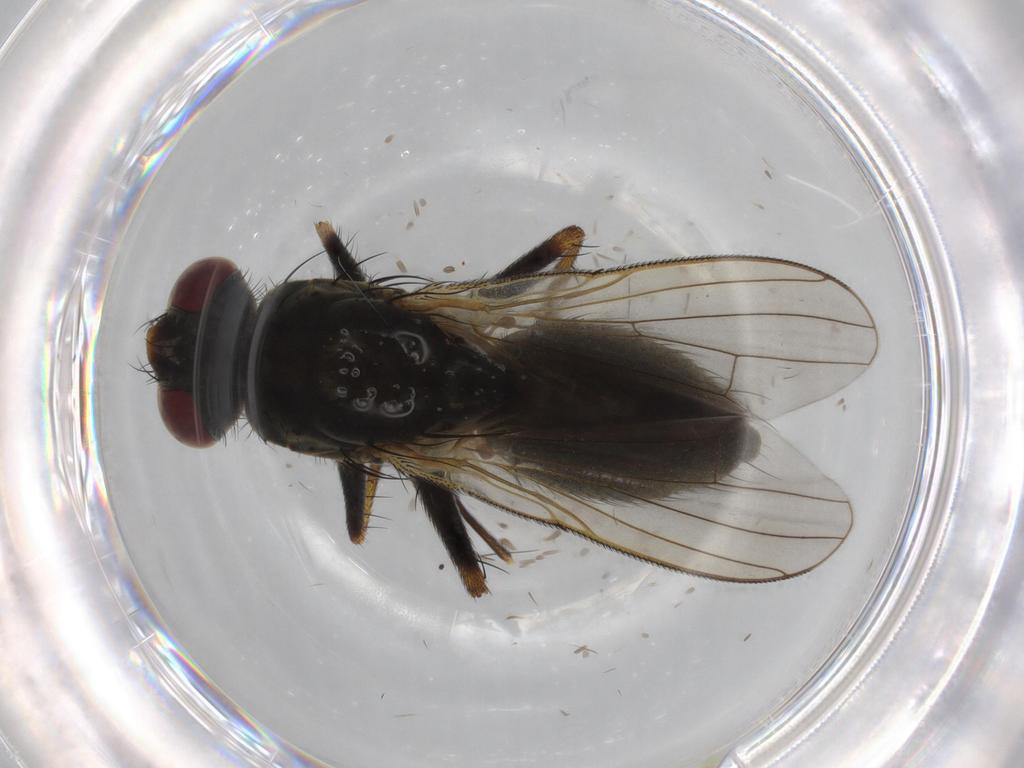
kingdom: Animalia
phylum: Arthropoda
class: Insecta
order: Diptera
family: Muscidae
